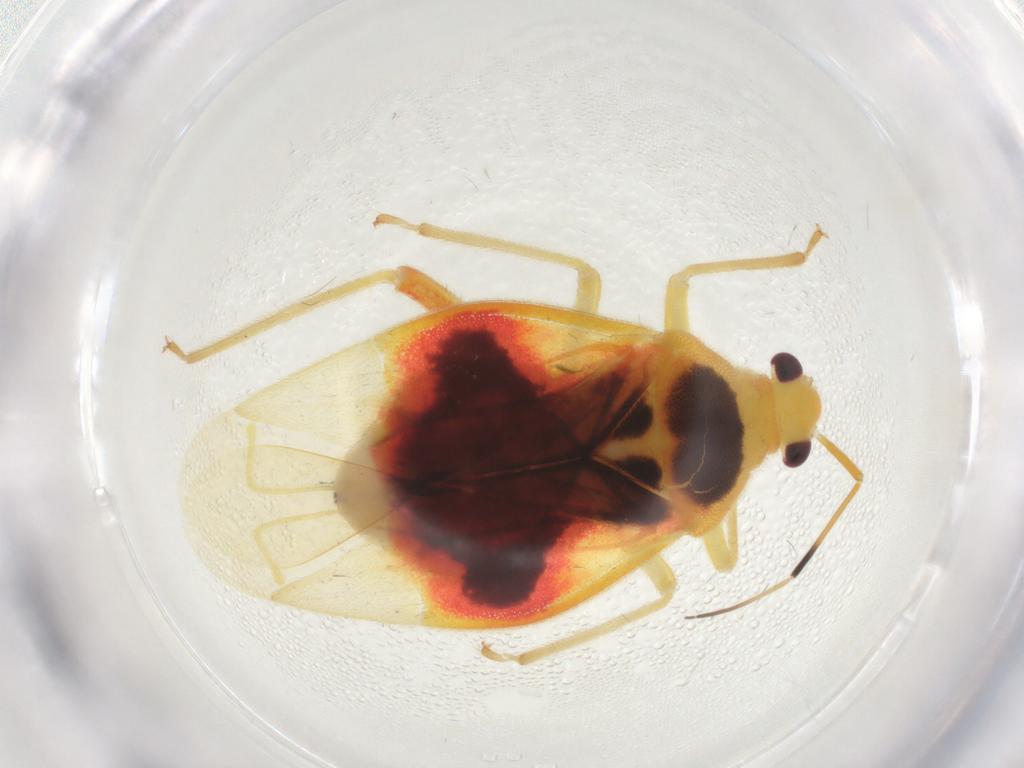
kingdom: Animalia
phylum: Arthropoda
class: Insecta
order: Hemiptera
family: Miridae
